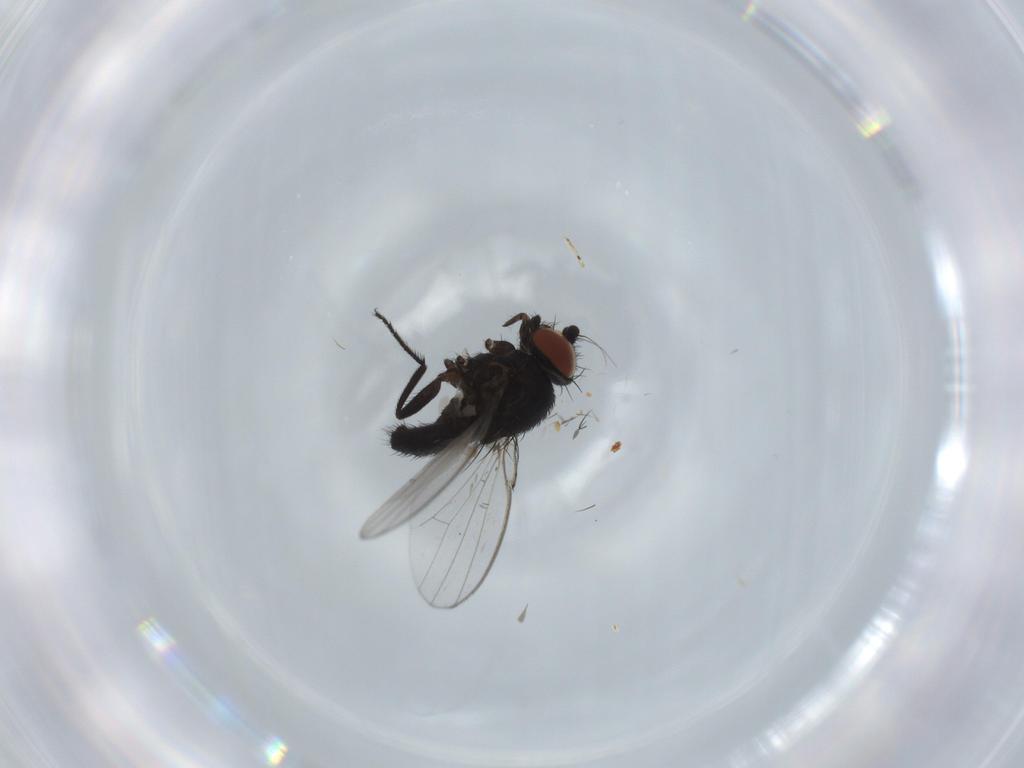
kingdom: Animalia
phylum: Arthropoda
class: Insecta
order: Diptera
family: Milichiidae
